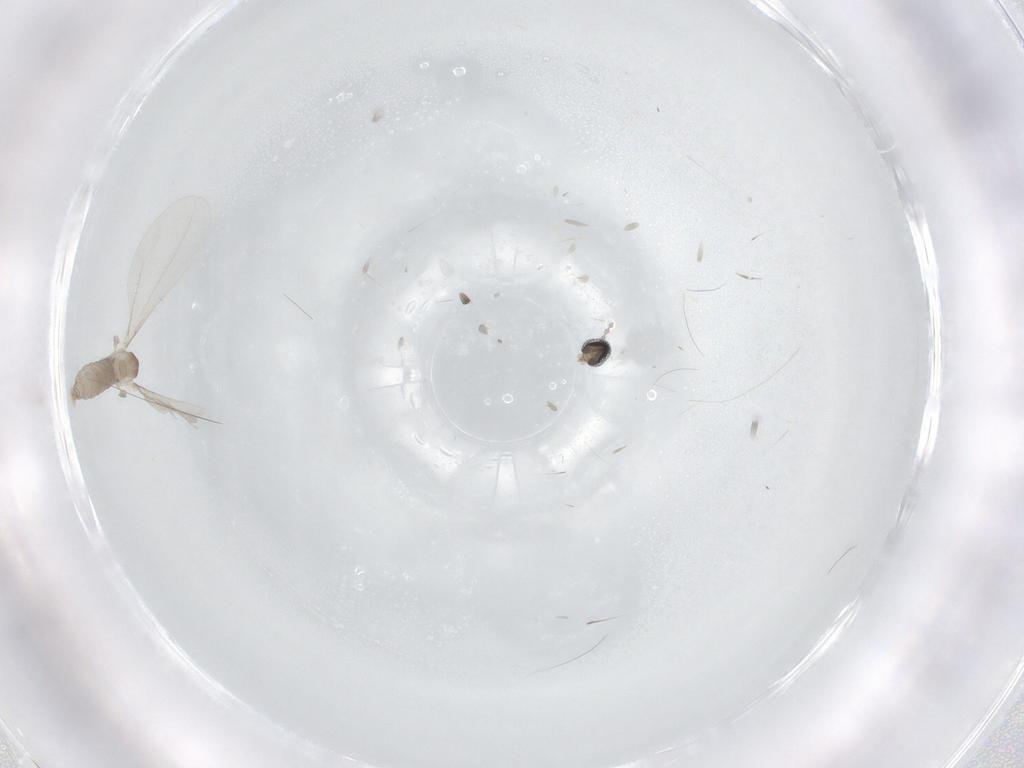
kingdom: Animalia
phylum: Arthropoda
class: Insecta
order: Diptera
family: Cecidomyiidae
